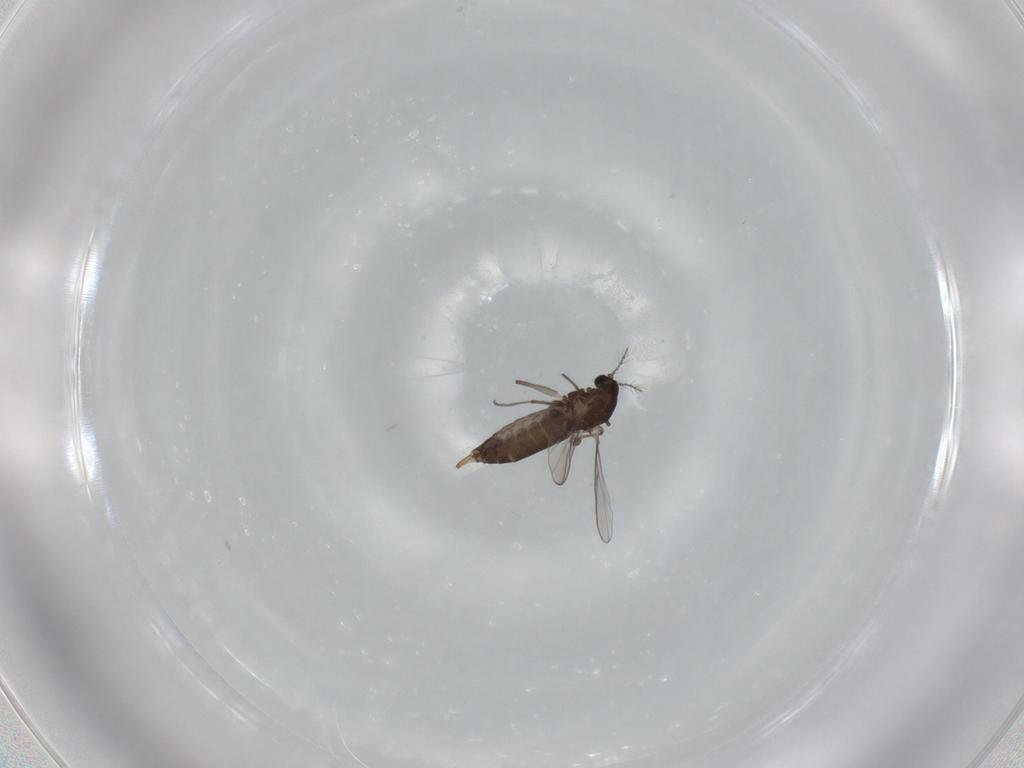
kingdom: Animalia
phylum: Arthropoda
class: Insecta
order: Diptera
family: Chironomidae
